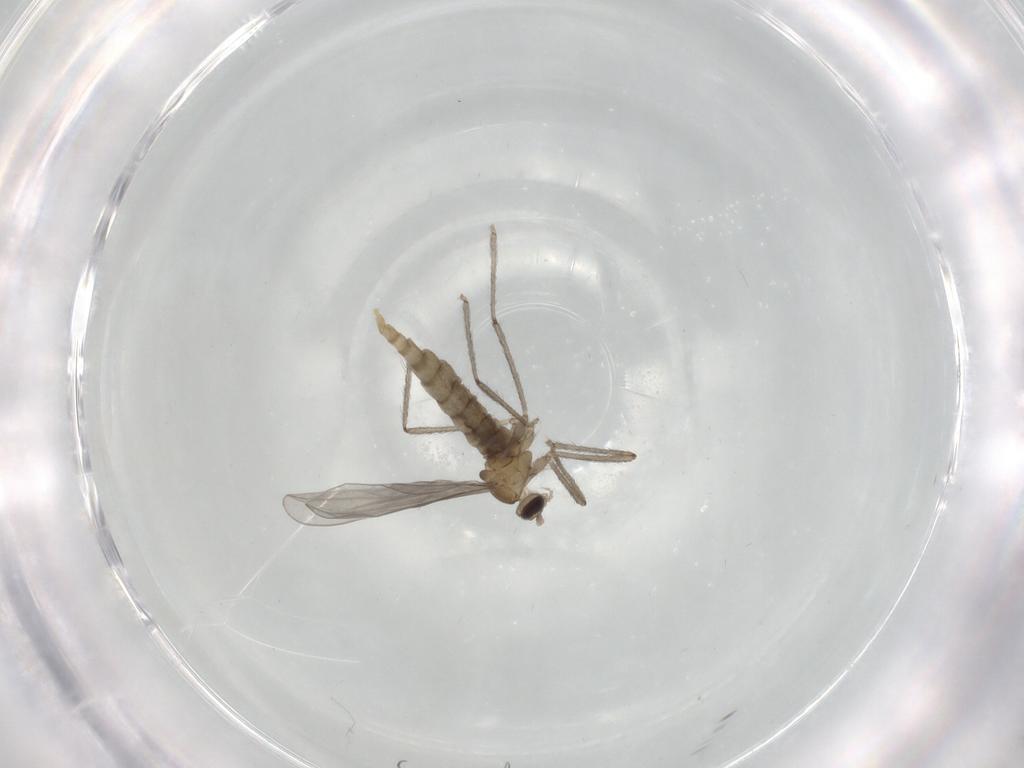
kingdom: Animalia
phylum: Arthropoda
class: Insecta
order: Diptera
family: Cecidomyiidae
